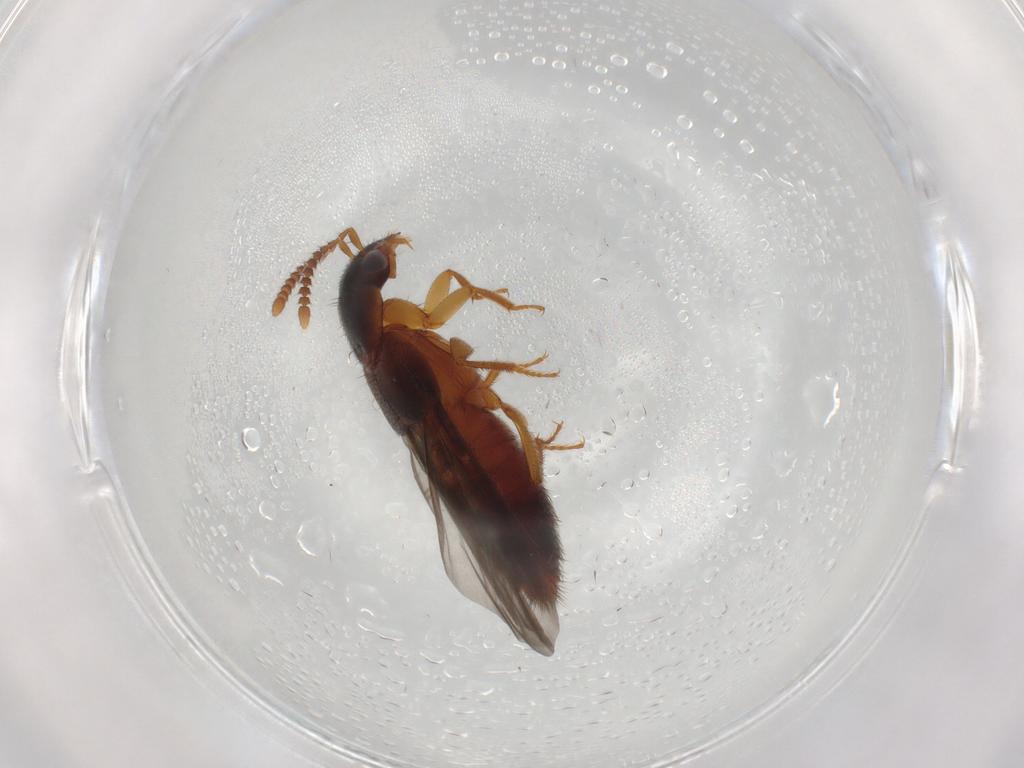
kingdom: Animalia
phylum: Arthropoda
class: Insecta
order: Coleoptera
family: Staphylinidae
